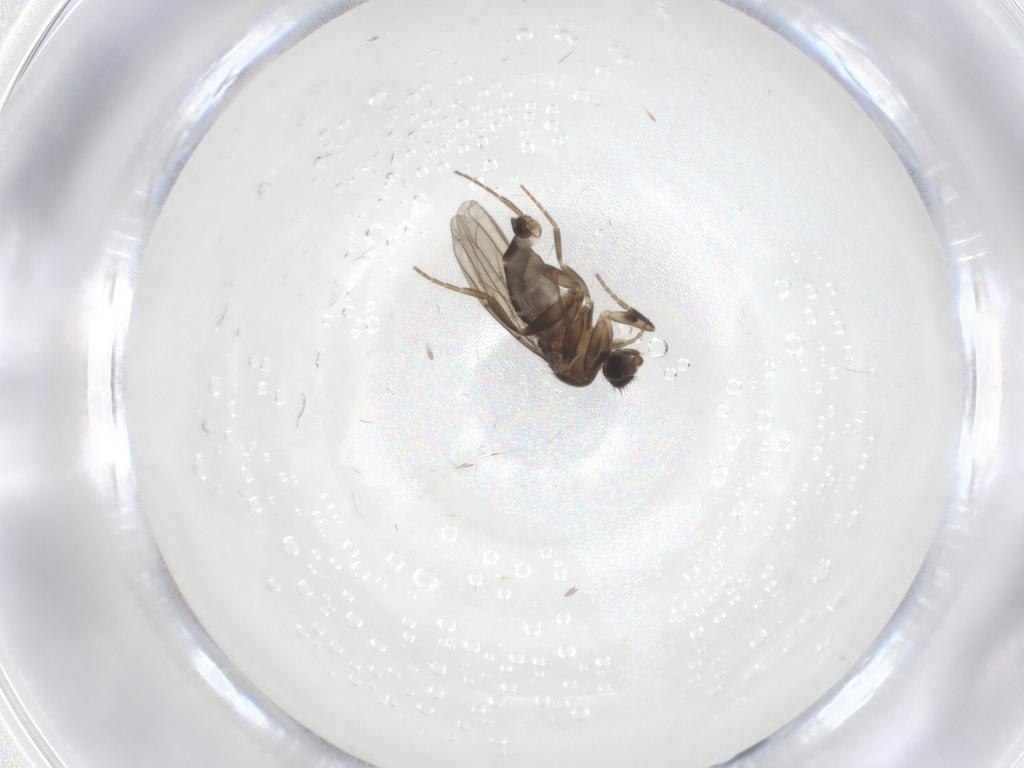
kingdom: Animalia
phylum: Arthropoda
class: Insecta
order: Diptera
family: Phoridae
